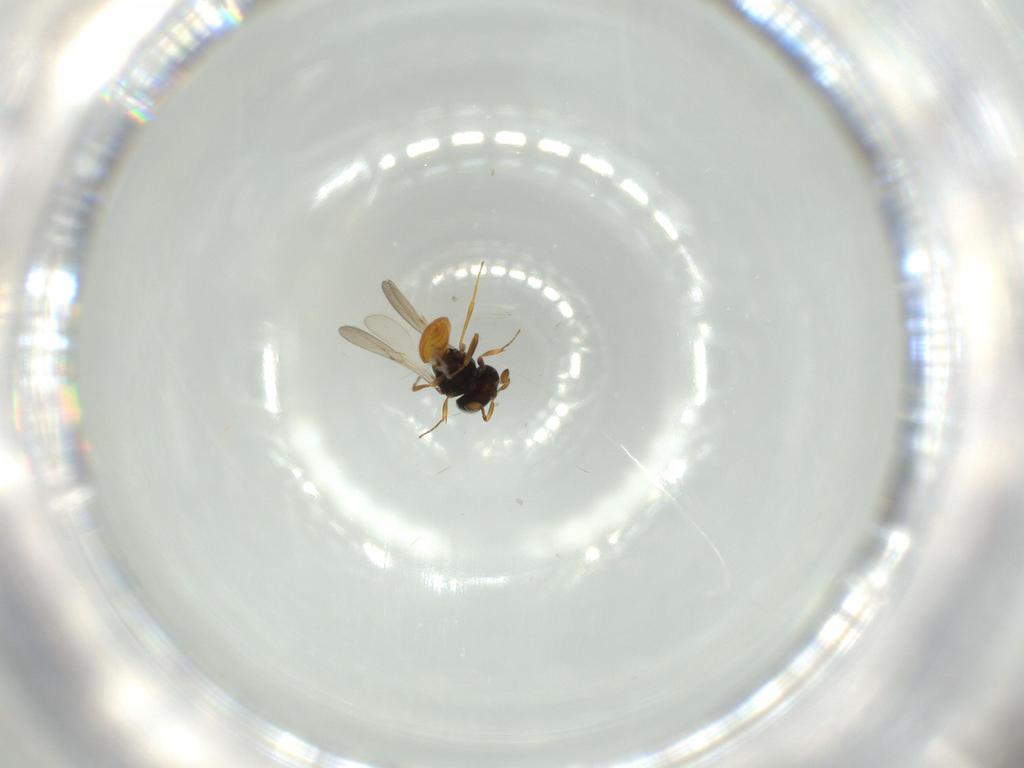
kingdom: Animalia
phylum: Arthropoda
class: Insecta
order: Hymenoptera
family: Scelionidae
